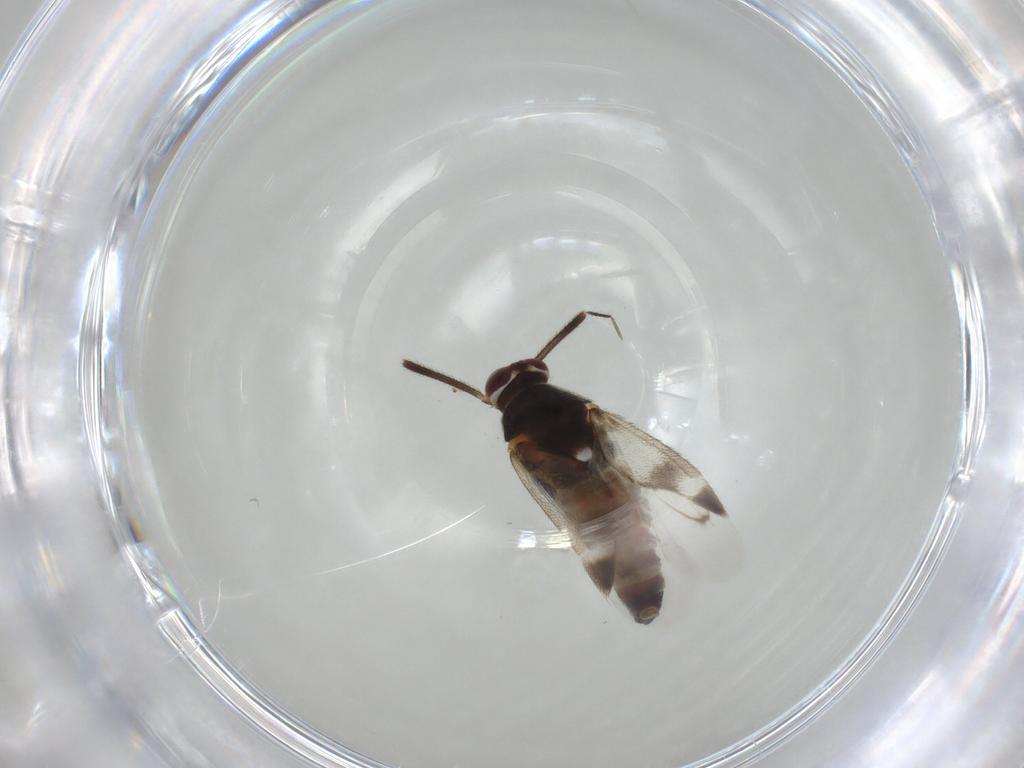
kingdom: Animalia
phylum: Arthropoda
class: Insecta
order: Hemiptera
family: Miridae
